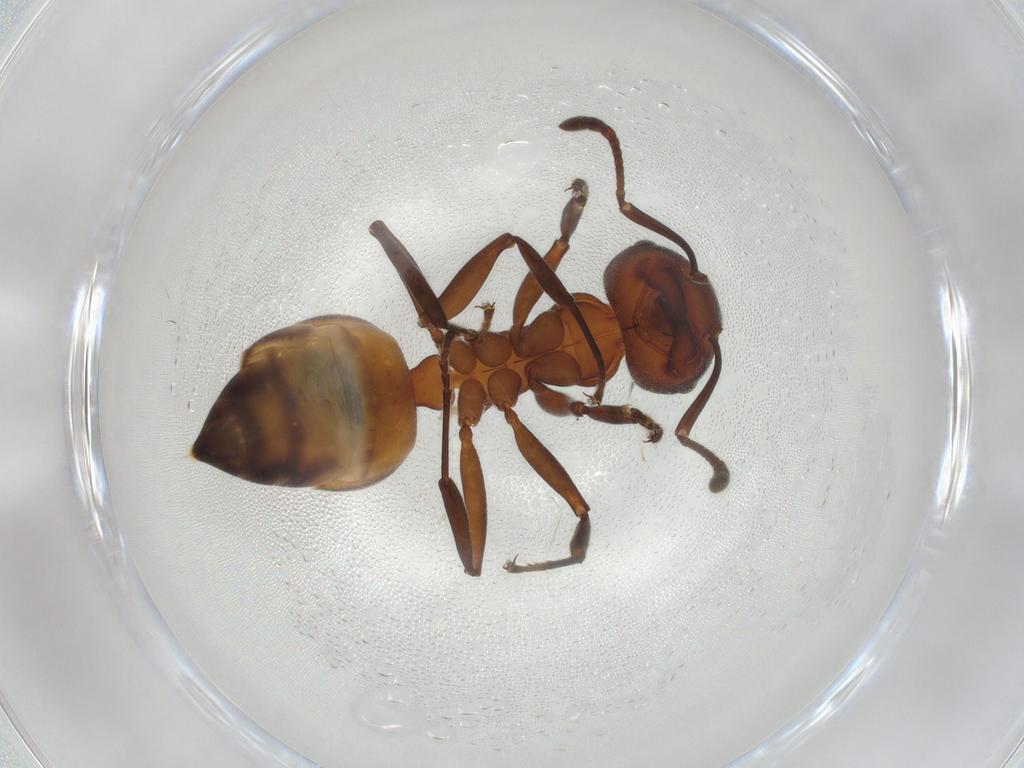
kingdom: Animalia
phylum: Arthropoda
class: Insecta
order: Hymenoptera
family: Formicidae
